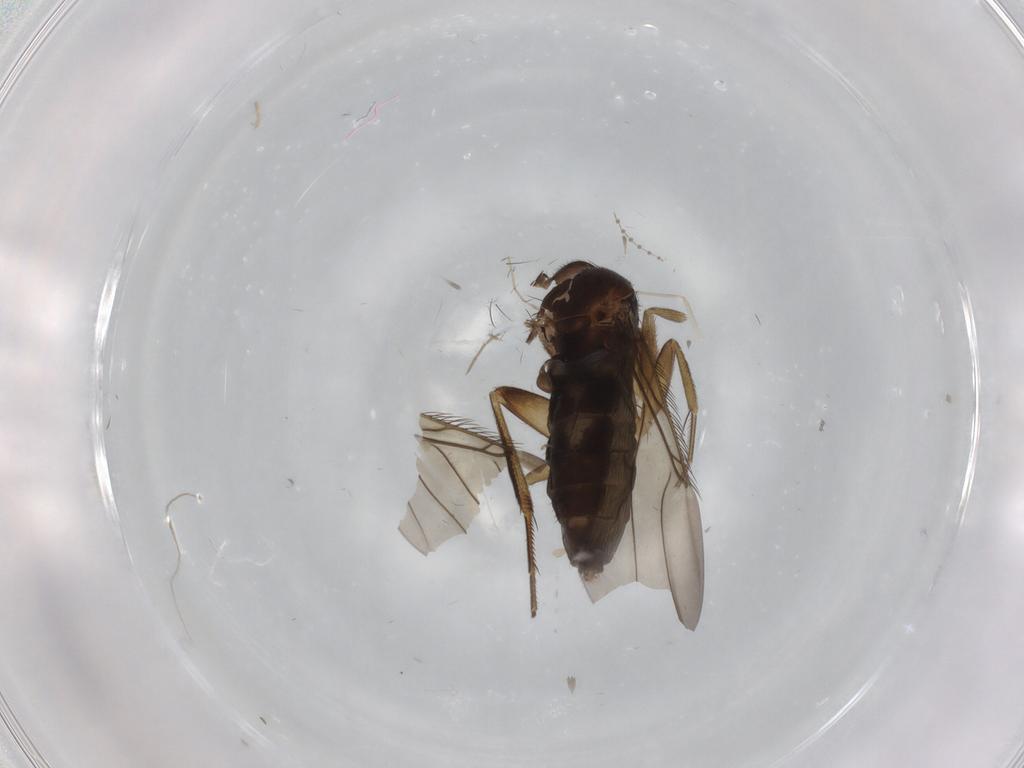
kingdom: Animalia
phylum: Arthropoda
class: Insecta
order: Diptera
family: Phoridae
